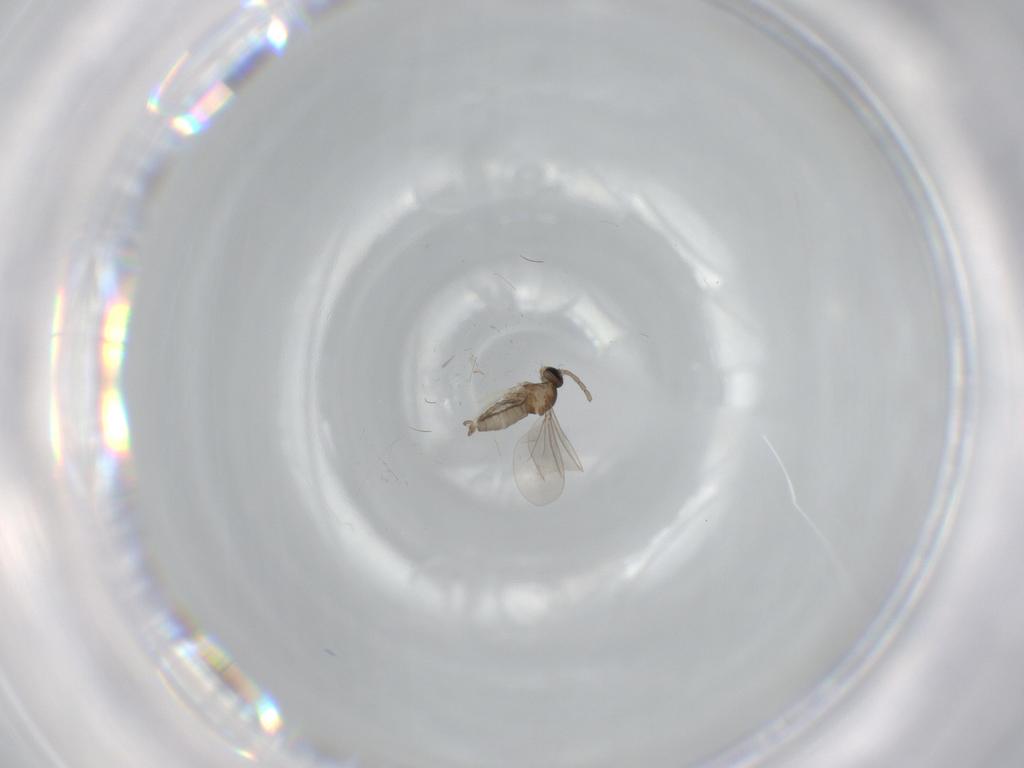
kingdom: Animalia
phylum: Arthropoda
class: Insecta
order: Diptera
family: Cecidomyiidae
